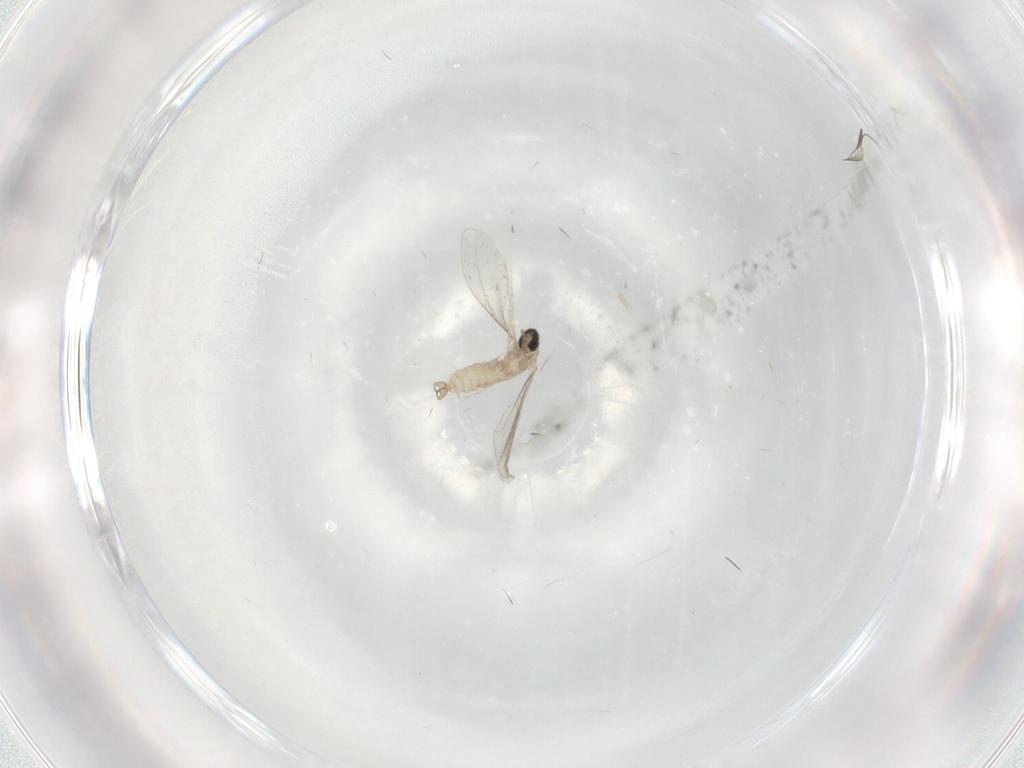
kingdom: Animalia
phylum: Arthropoda
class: Insecta
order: Diptera
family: Cecidomyiidae
